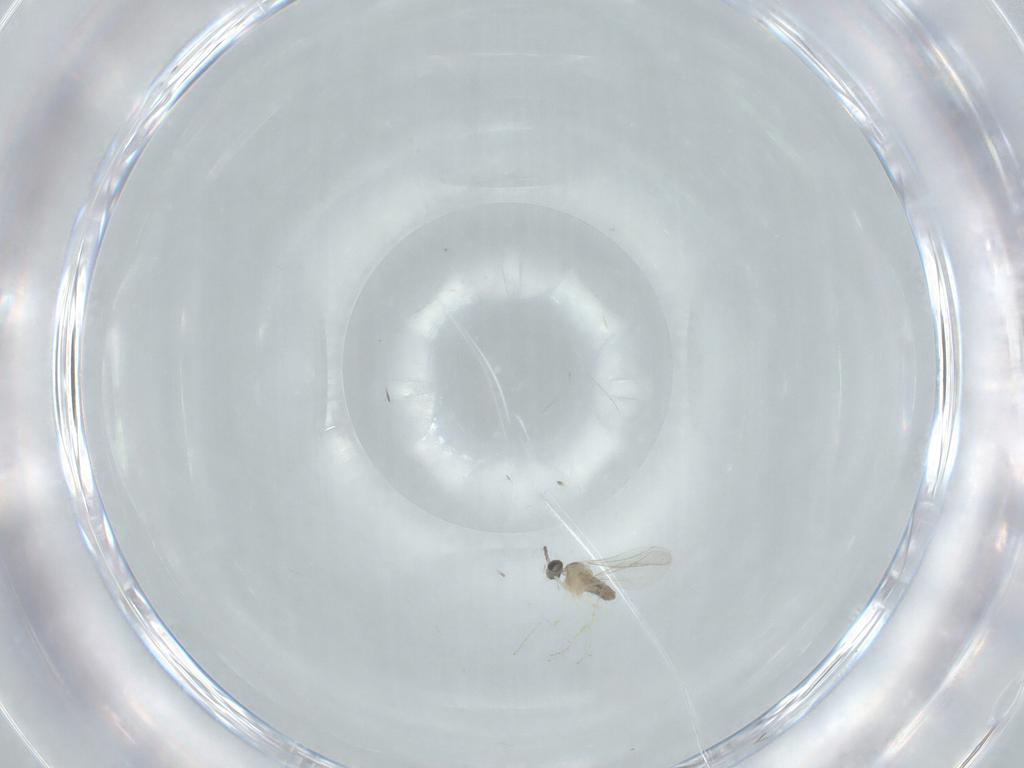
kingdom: Animalia
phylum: Arthropoda
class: Insecta
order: Diptera
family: Cecidomyiidae
